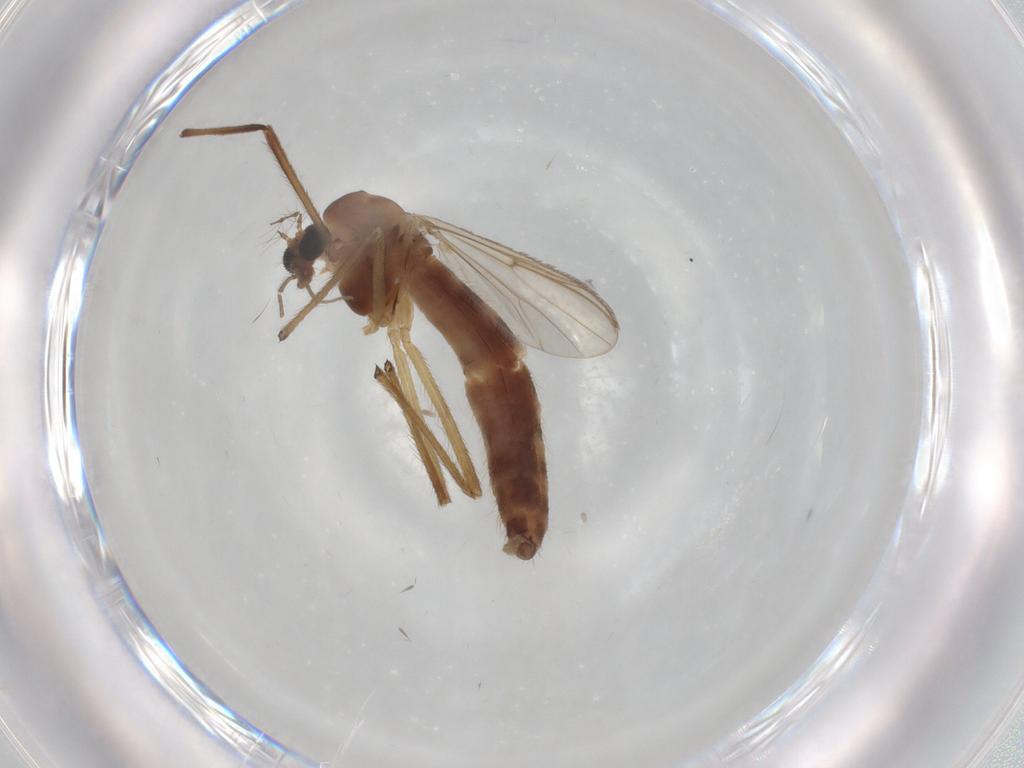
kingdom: Animalia
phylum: Arthropoda
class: Insecta
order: Diptera
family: Chironomidae
